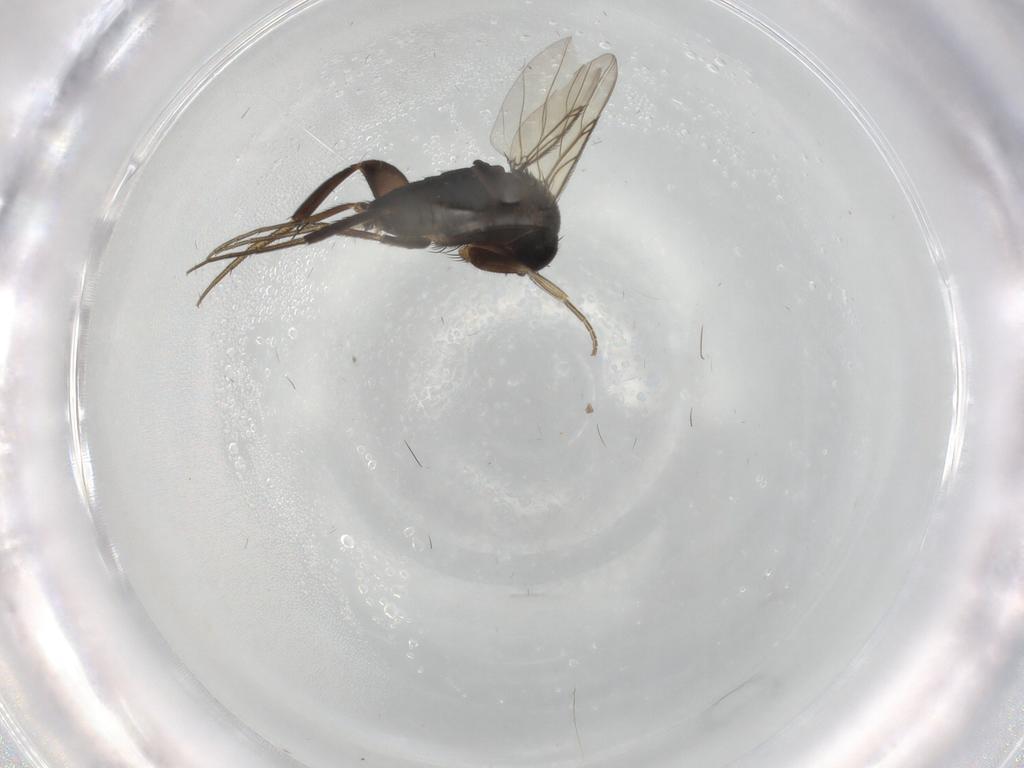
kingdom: Animalia
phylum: Arthropoda
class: Insecta
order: Diptera
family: Phoridae
